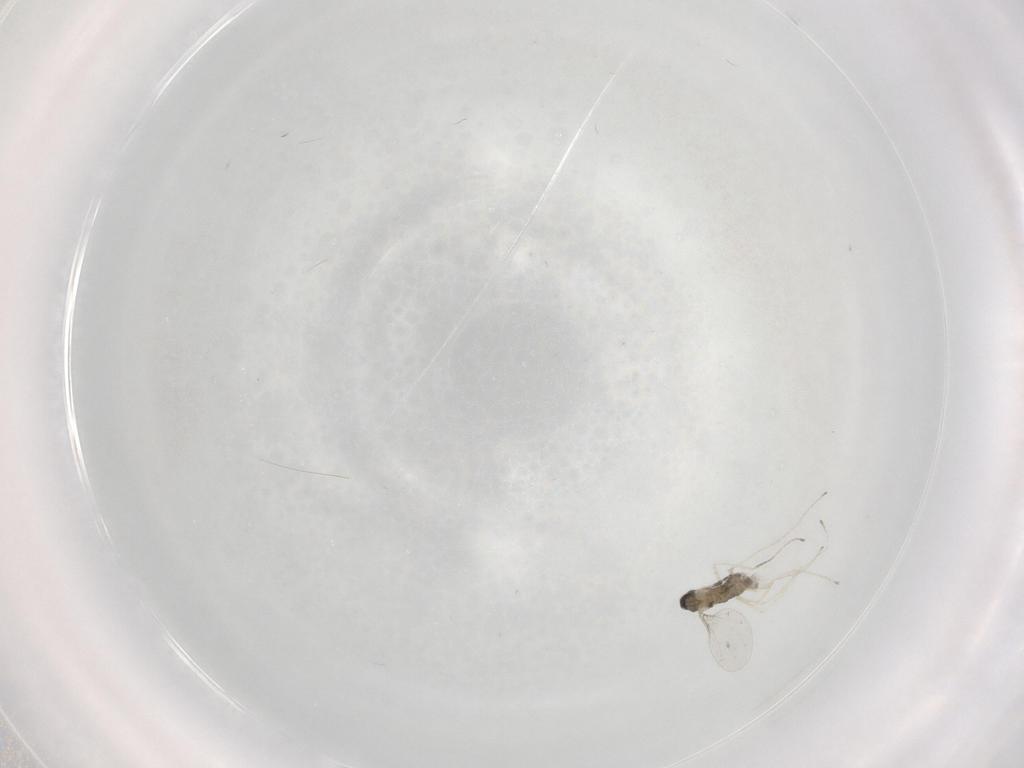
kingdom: Animalia
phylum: Arthropoda
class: Insecta
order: Diptera
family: Cecidomyiidae
